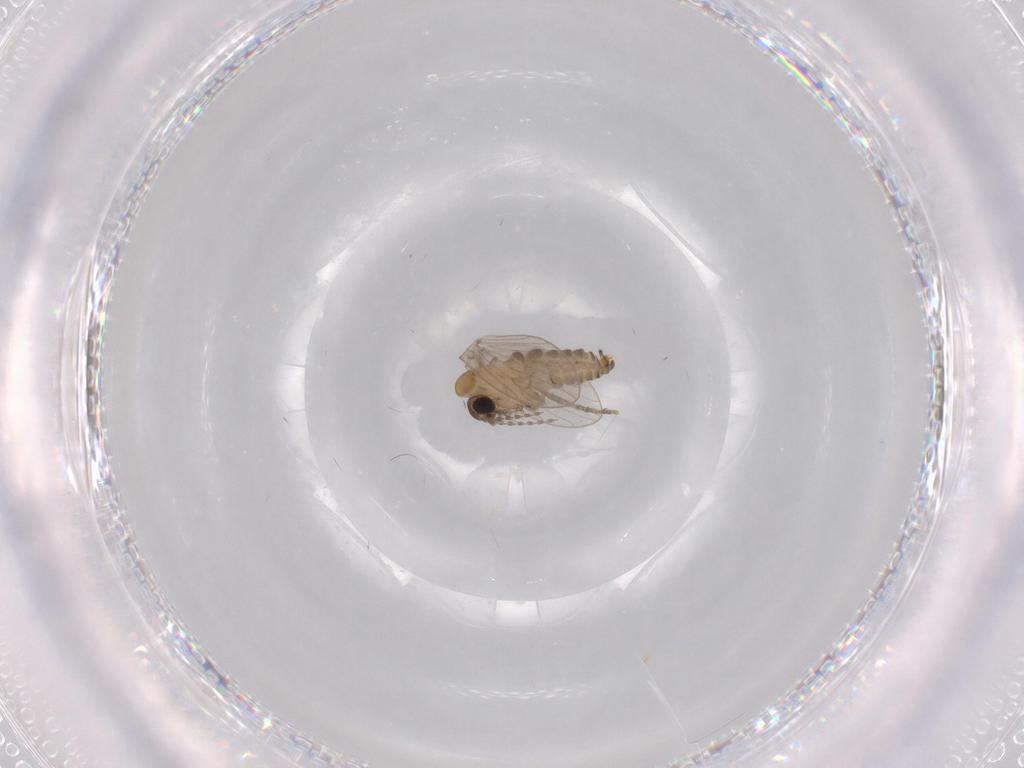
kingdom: Animalia
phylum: Arthropoda
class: Insecta
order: Diptera
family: Psychodidae
